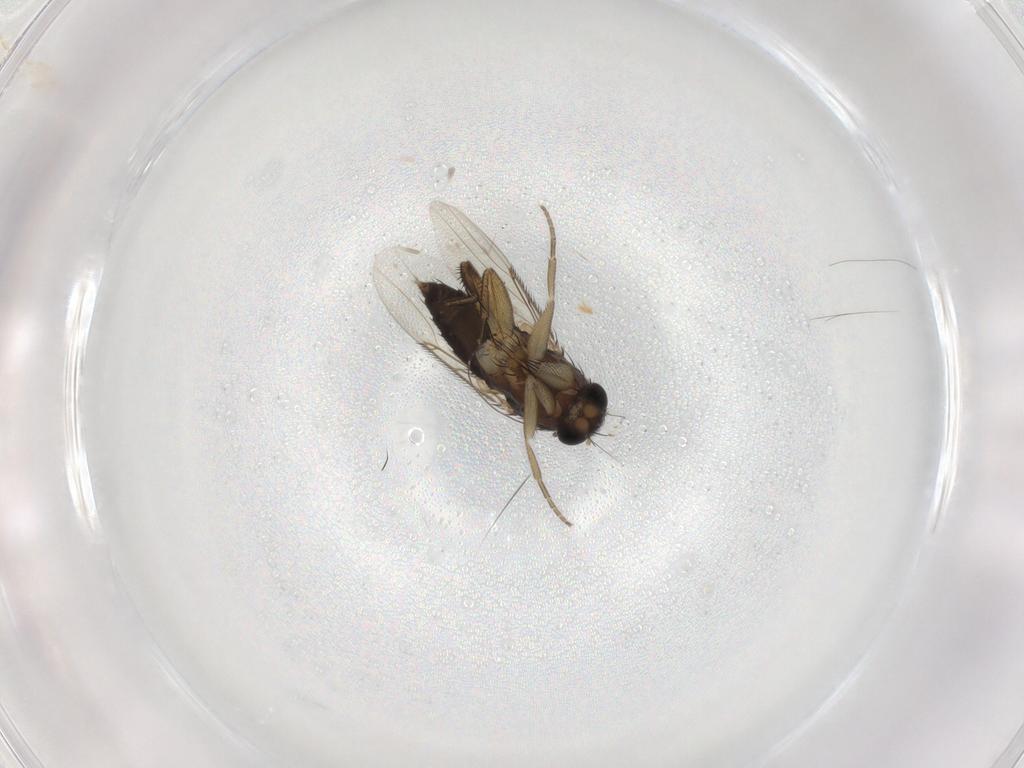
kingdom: Animalia
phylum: Arthropoda
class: Insecta
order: Diptera
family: Phoridae
